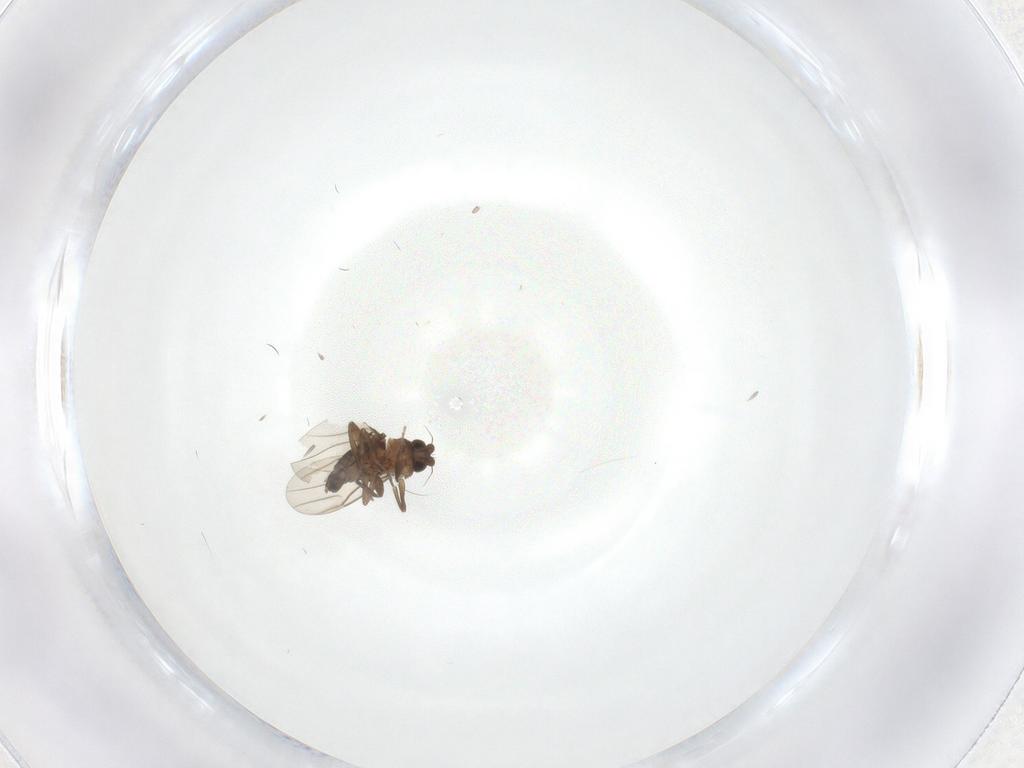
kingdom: Animalia
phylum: Arthropoda
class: Insecta
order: Diptera
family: Phoridae
